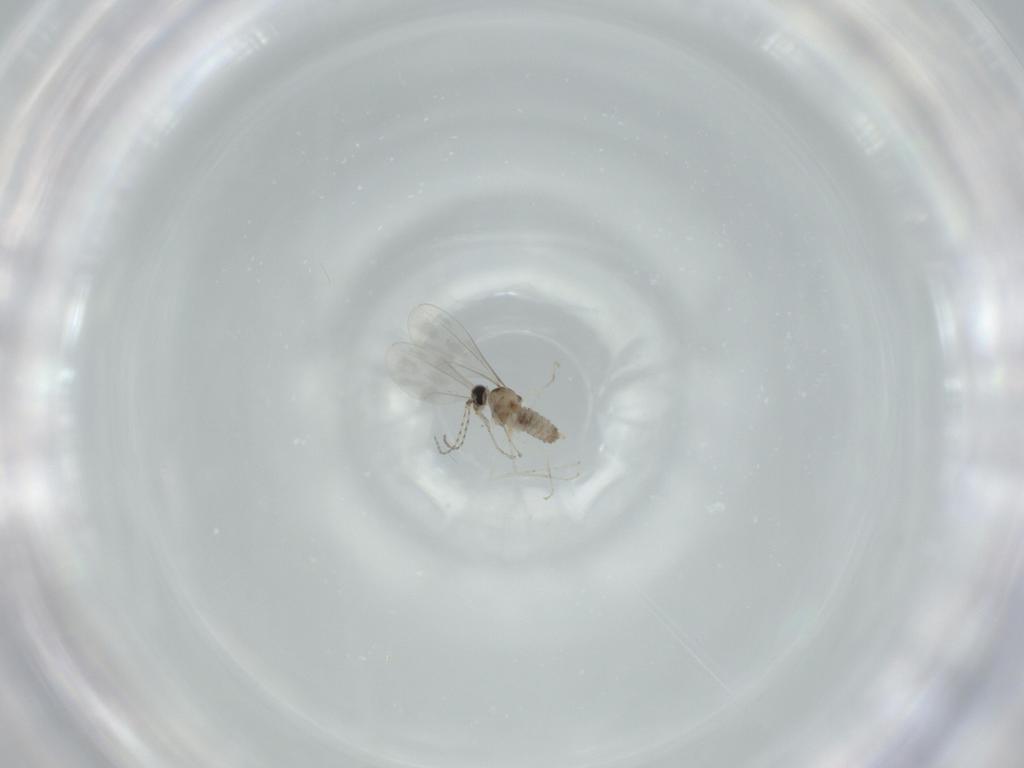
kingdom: Animalia
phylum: Arthropoda
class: Insecta
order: Diptera
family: Cecidomyiidae
